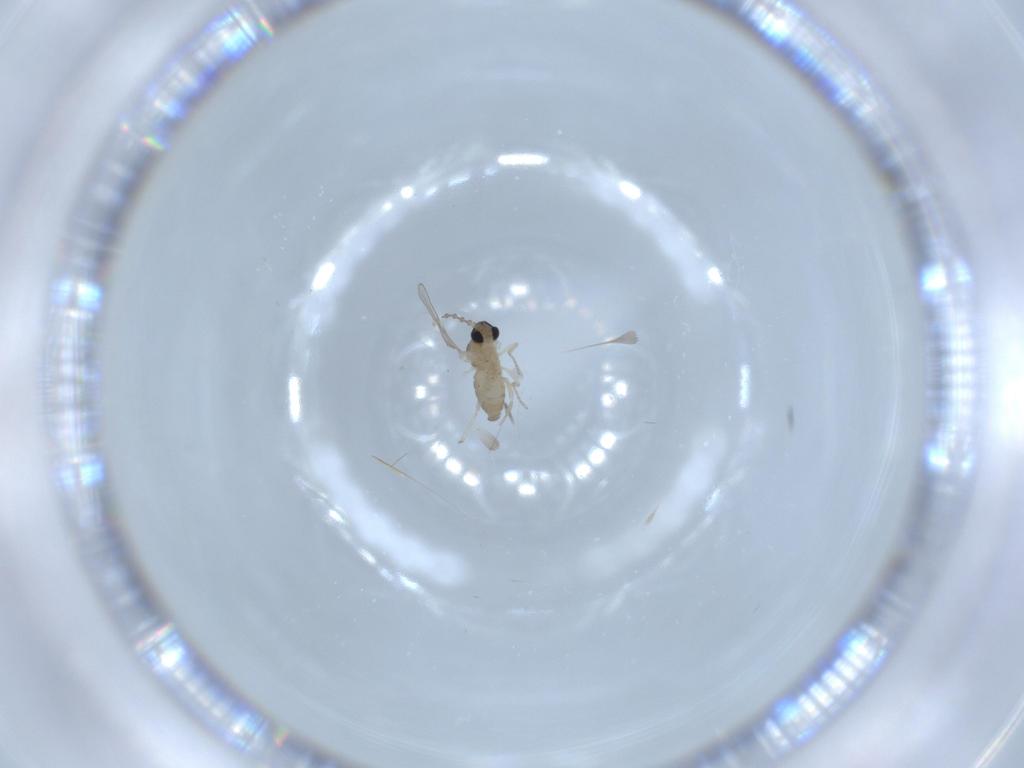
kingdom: Animalia
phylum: Arthropoda
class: Insecta
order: Diptera
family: Cecidomyiidae
